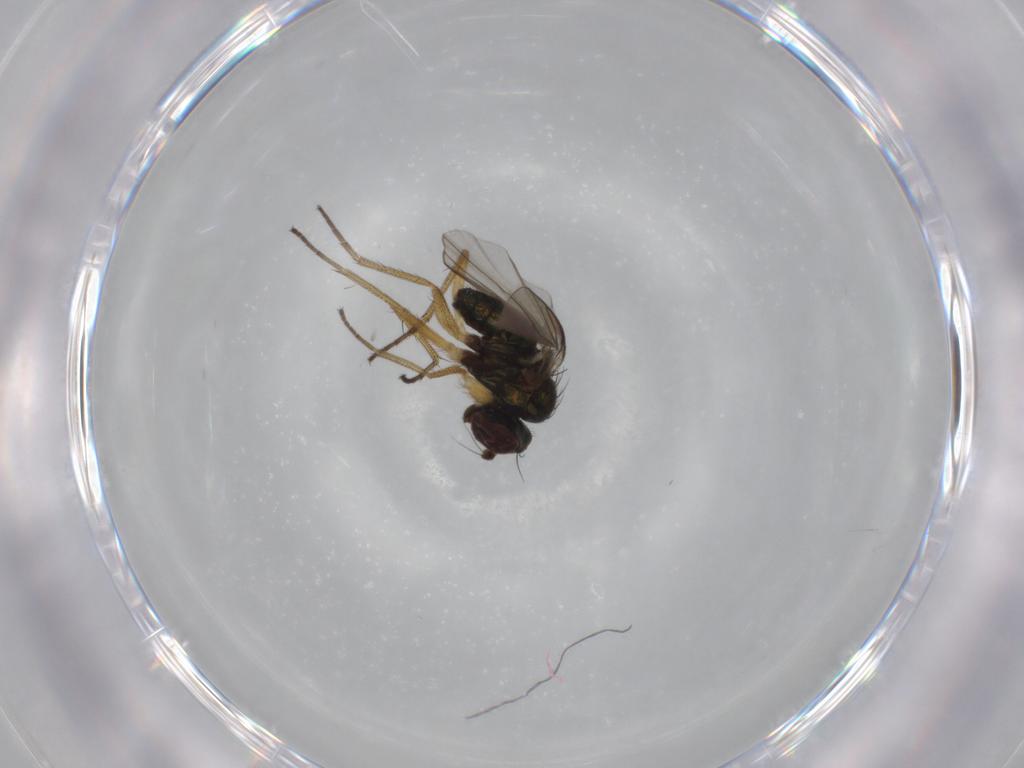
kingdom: Animalia
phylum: Arthropoda
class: Insecta
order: Diptera
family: Dolichopodidae
